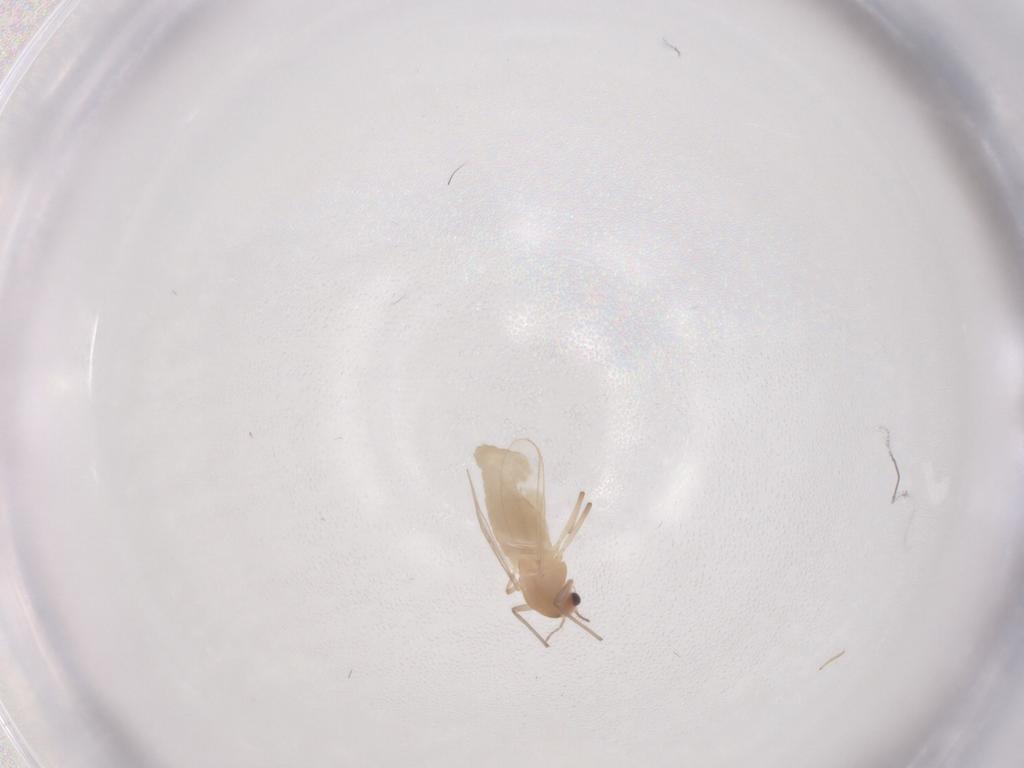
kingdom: Animalia
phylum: Arthropoda
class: Insecta
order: Diptera
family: Chironomidae
